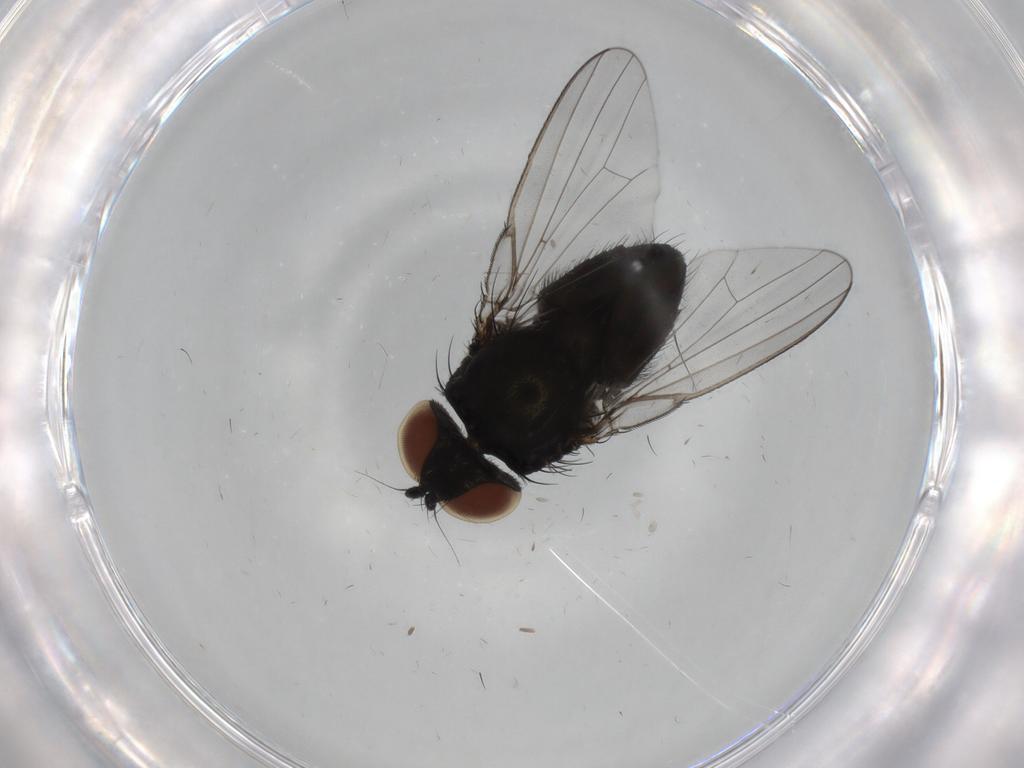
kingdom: Animalia
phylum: Arthropoda
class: Insecta
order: Diptera
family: Milichiidae
